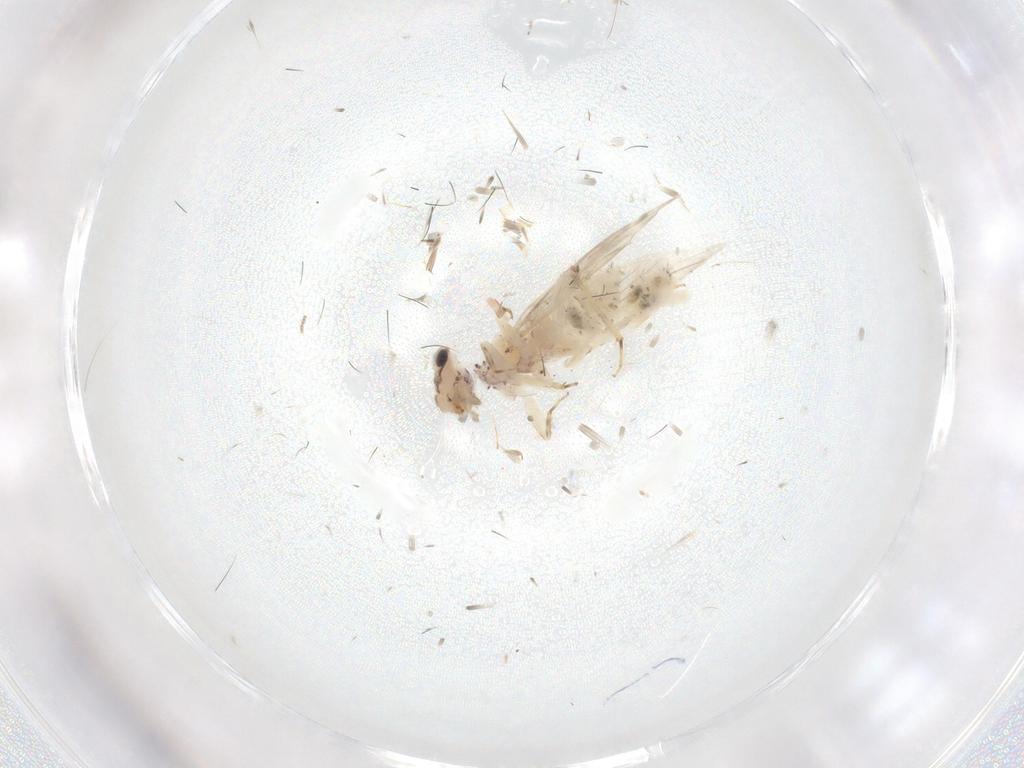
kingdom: Animalia
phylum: Arthropoda
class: Insecta
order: Psocodea
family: Lepidopsocidae
